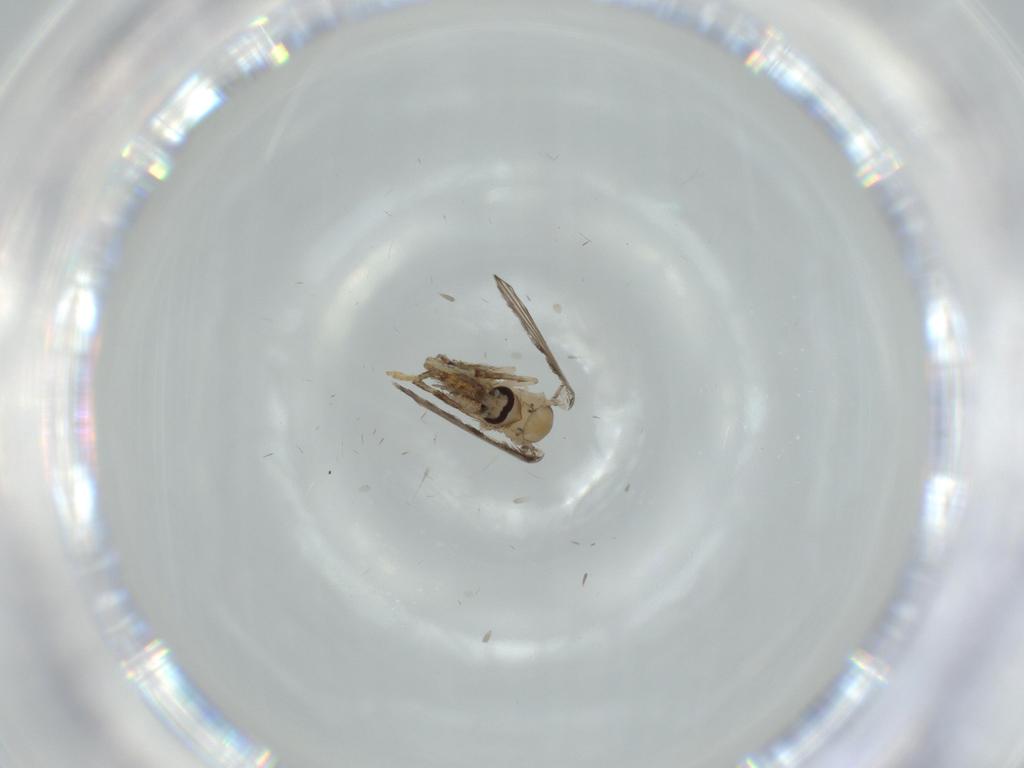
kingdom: Animalia
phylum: Arthropoda
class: Insecta
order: Diptera
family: Psychodidae
